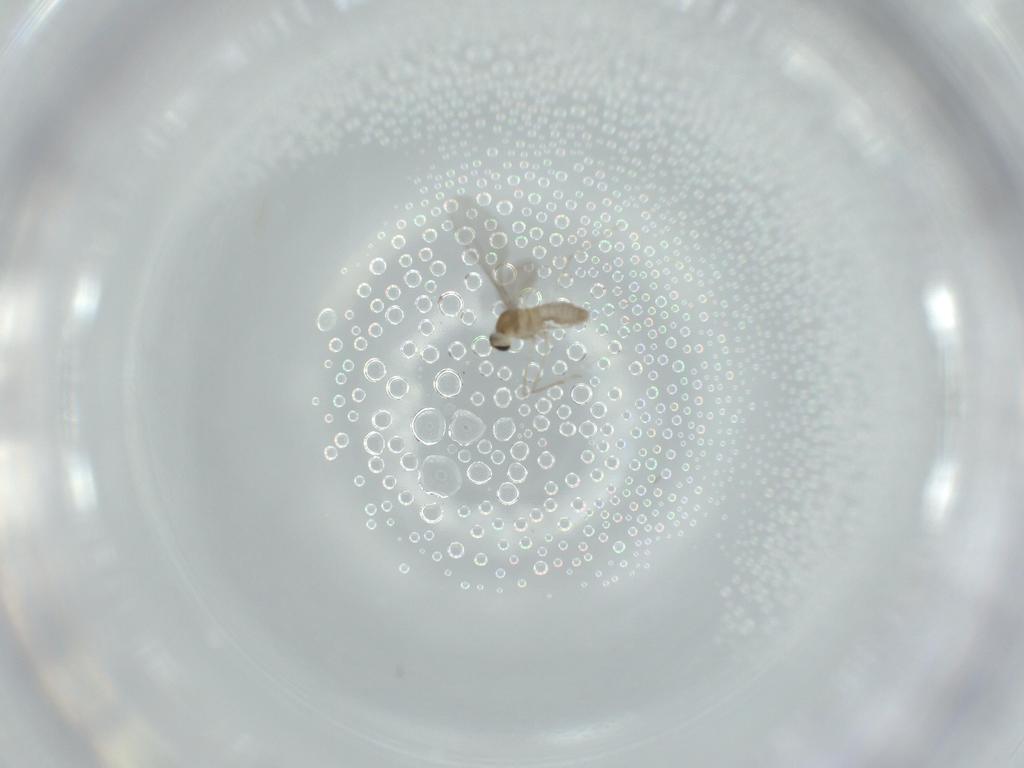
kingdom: Animalia
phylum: Arthropoda
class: Insecta
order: Diptera
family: Cecidomyiidae
